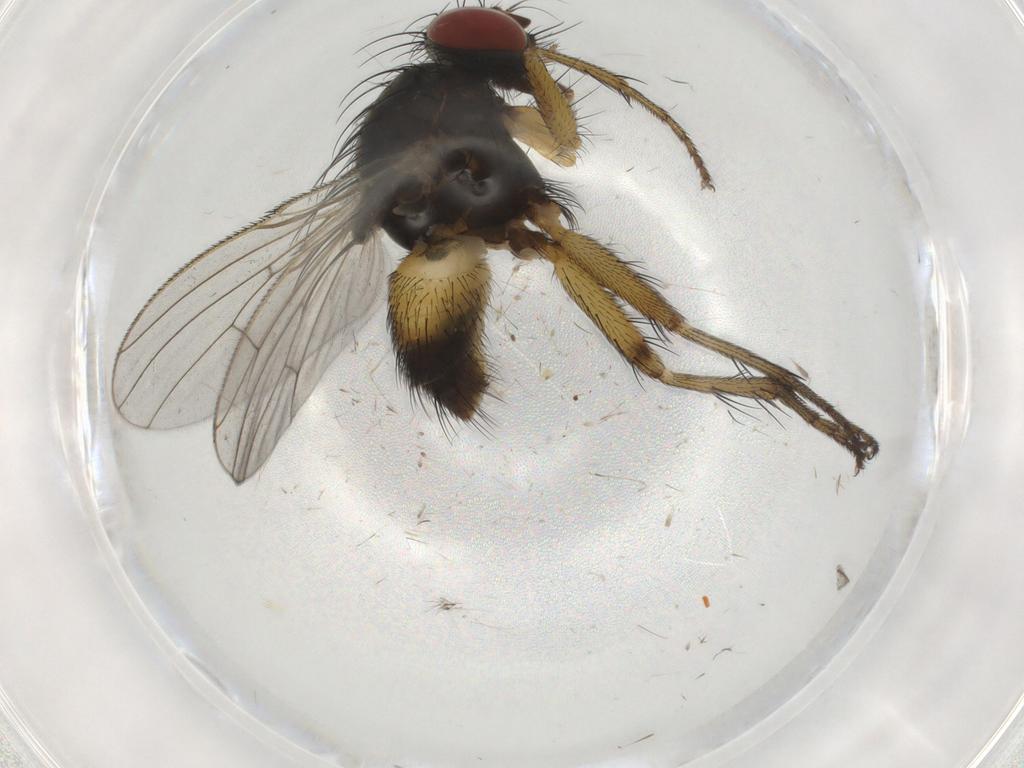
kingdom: Animalia
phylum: Arthropoda
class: Insecta
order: Diptera
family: Muscidae
